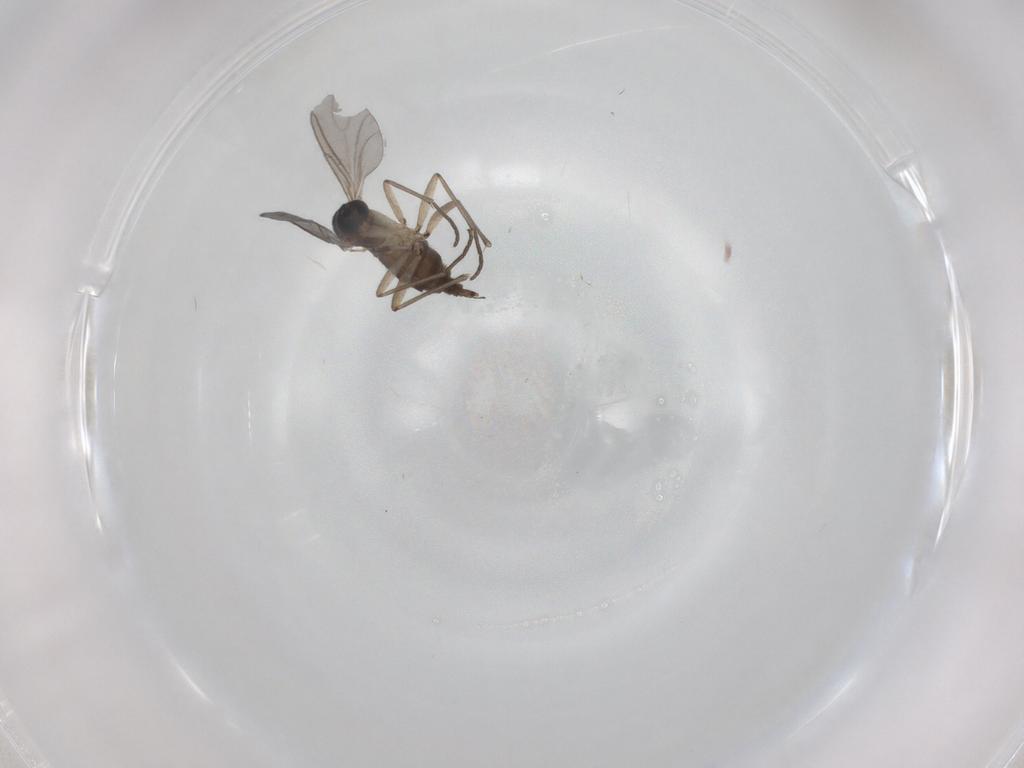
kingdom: Animalia
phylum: Arthropoda
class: Insecta
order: Diptera
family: Sciaridae
